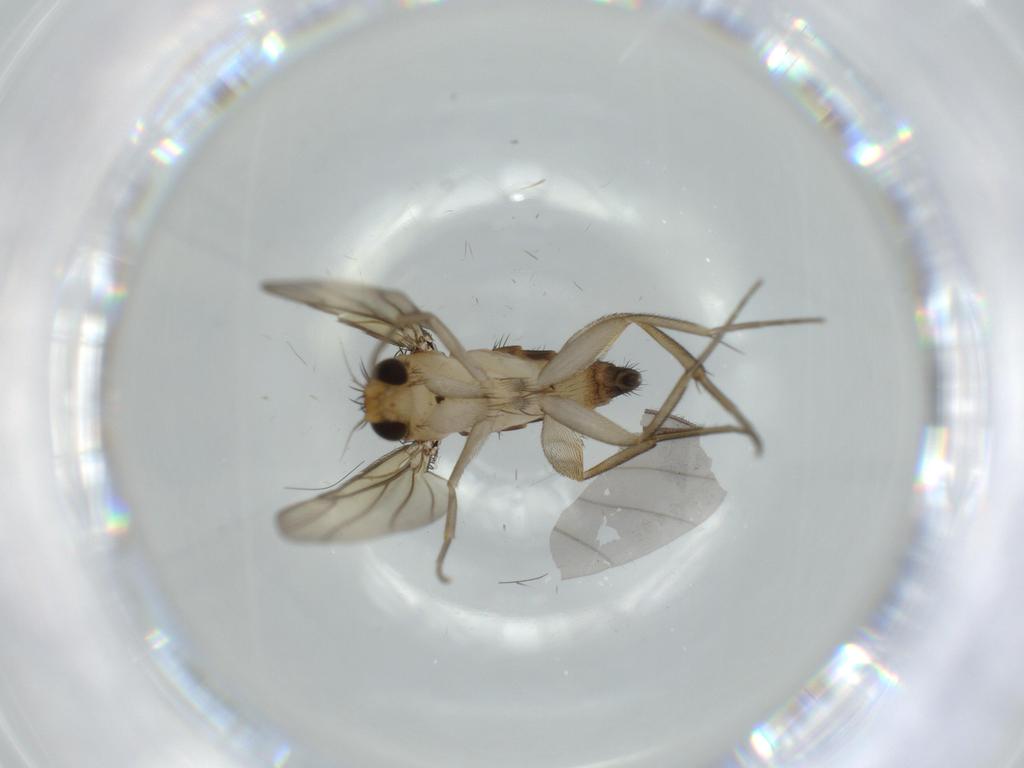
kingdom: Animalia
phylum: Arthropoda
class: Insecta
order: Diptera
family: Phoridae
